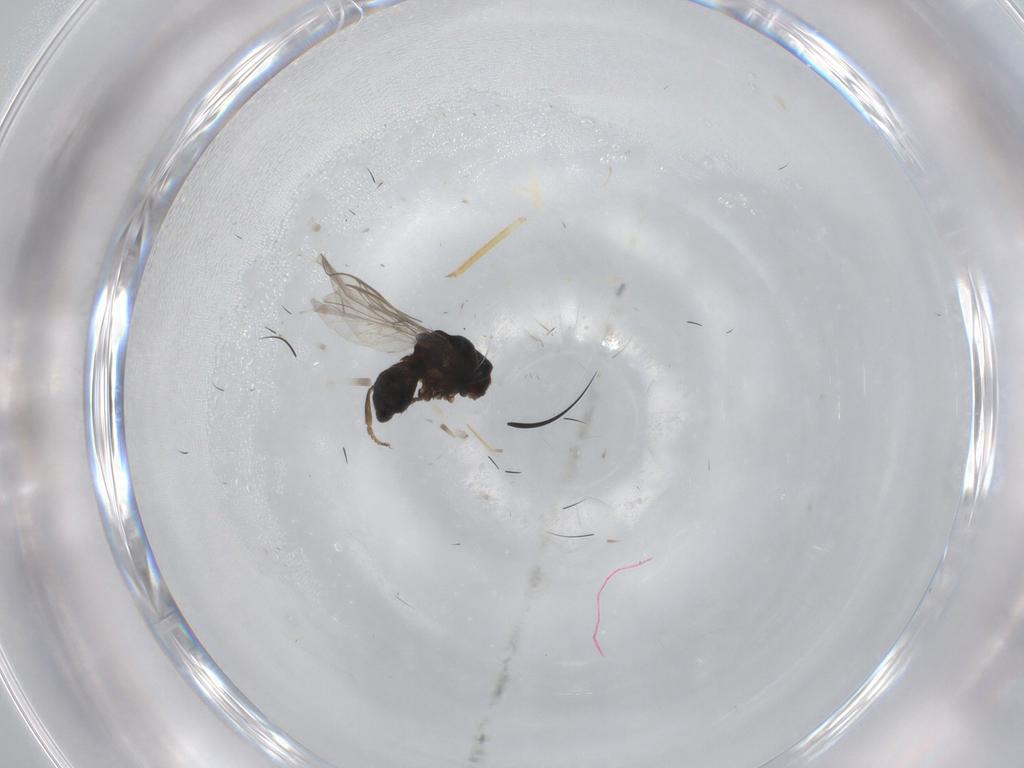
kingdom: Animalia
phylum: Arthropoda
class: Insecta
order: Diptera
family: Pipunculidae
